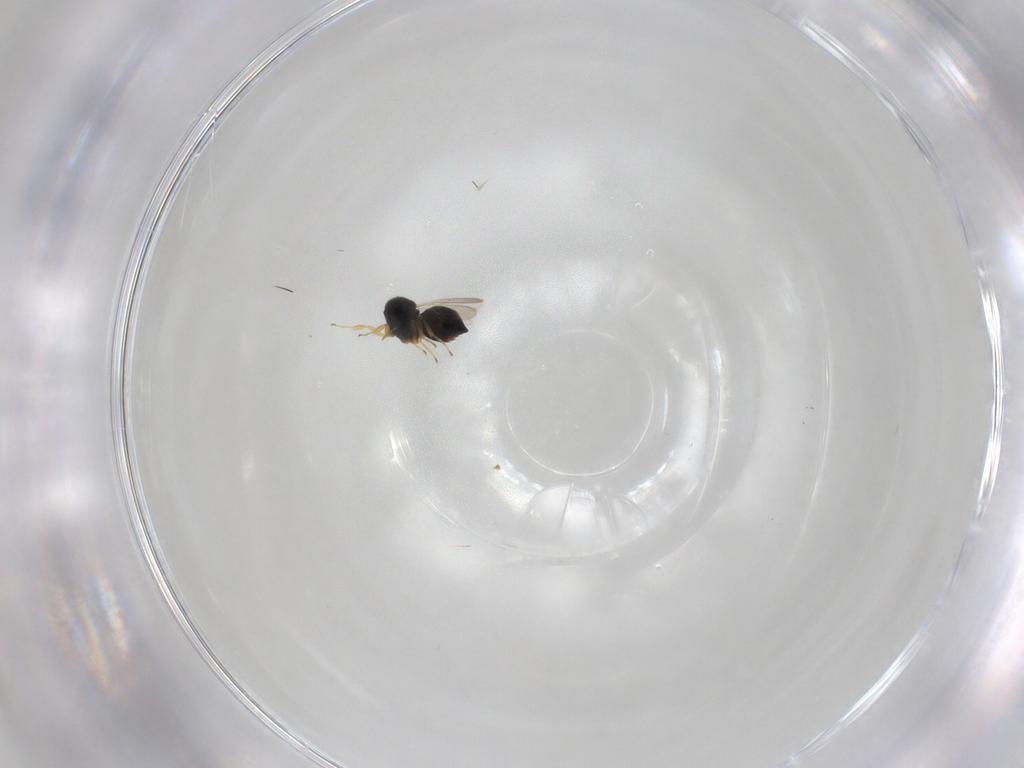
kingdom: Animalia
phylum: Arthropoda
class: Insecta
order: Hymenoptera
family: Scelionidae
